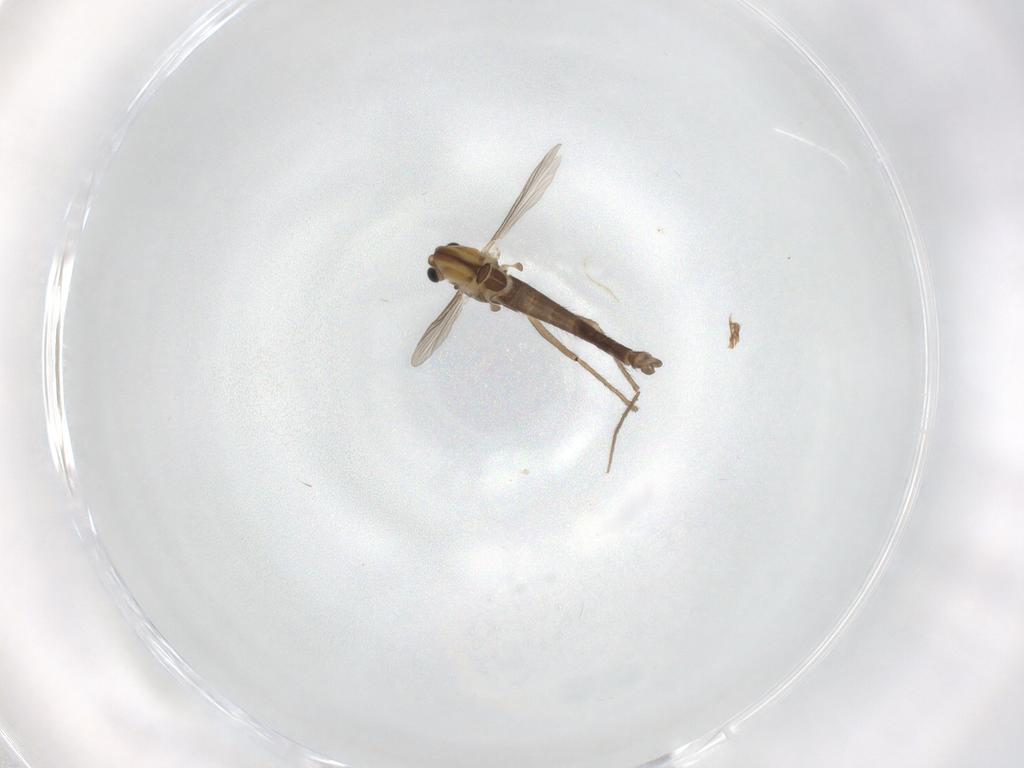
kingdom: Animalia
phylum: Arthropoda
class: Insecta
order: Diptera
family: Chironomidae
